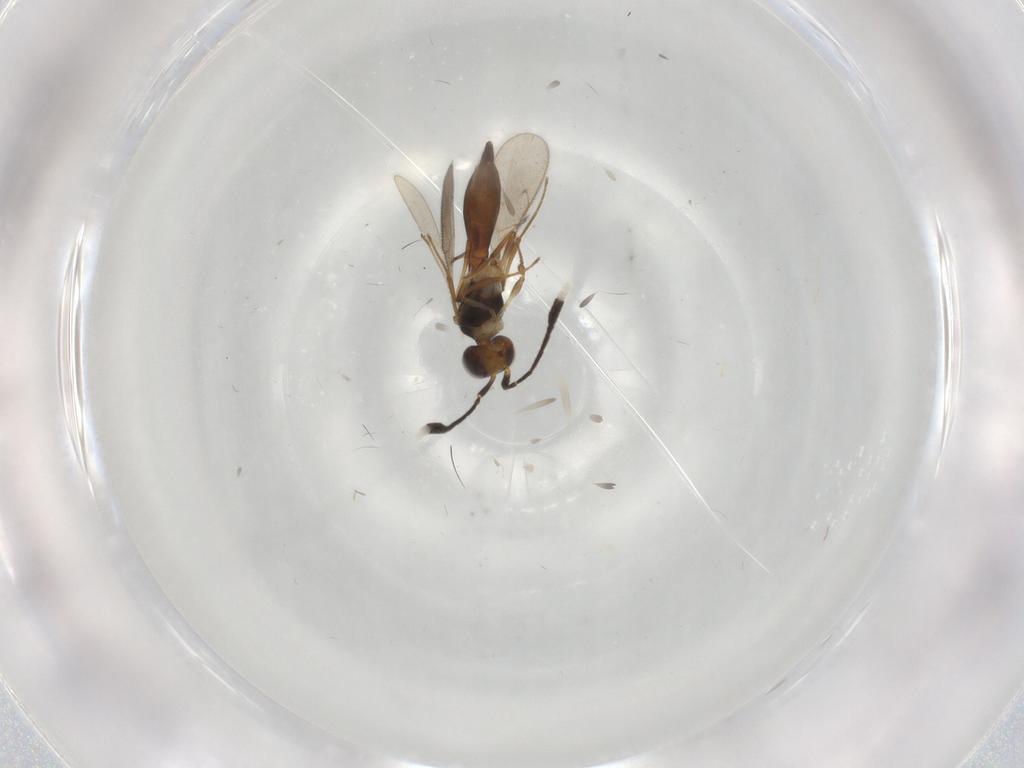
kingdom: Animalia
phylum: Arthropoda
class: Insecta
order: Hymenoptera
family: Scelionidae
